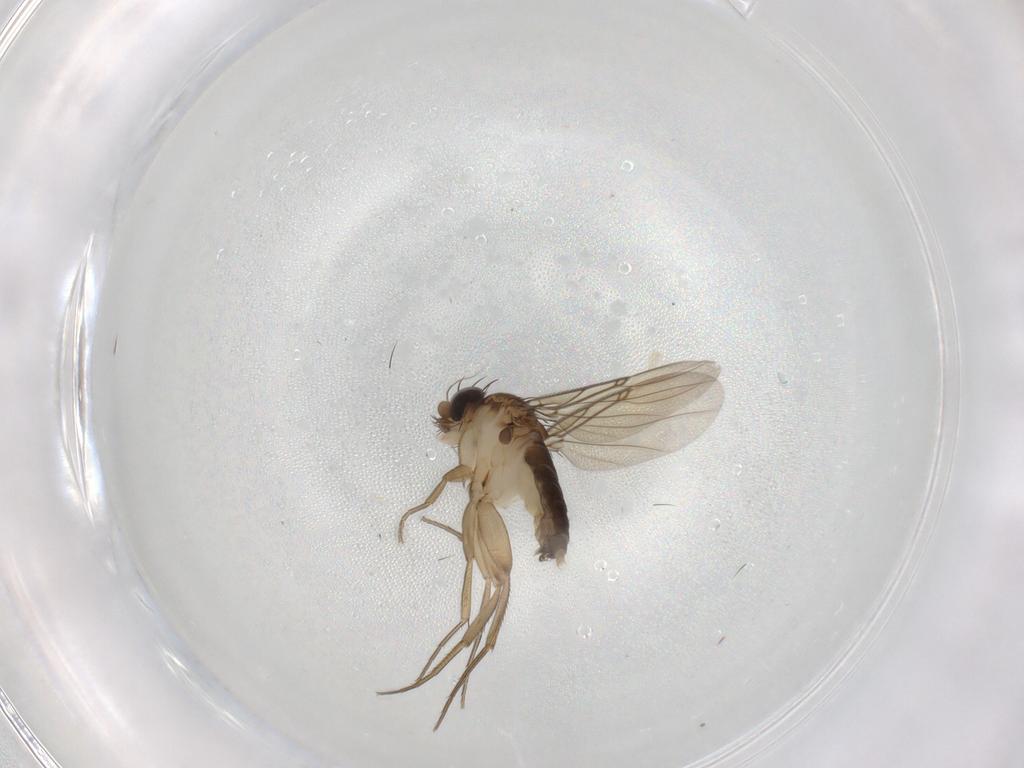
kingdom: Animalia
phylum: Arthropoda
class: Insecta
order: Diptera
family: Phoridae
